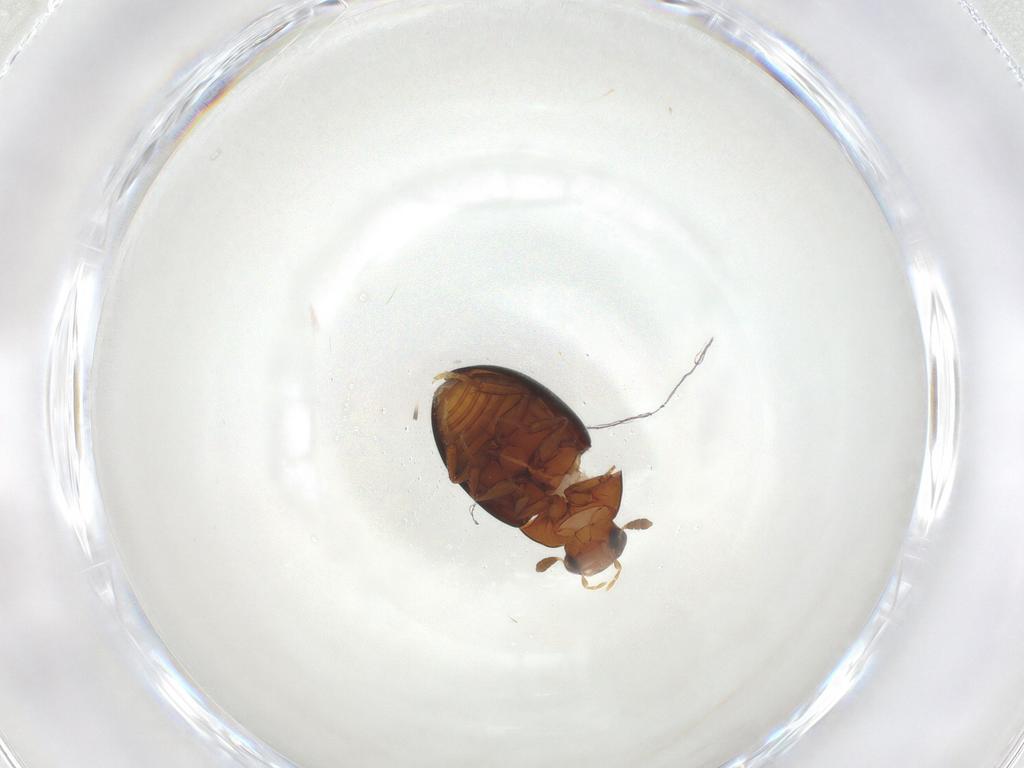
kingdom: Animalia
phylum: Arthropoda
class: Insecta
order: Coleoptera
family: Hydrophilidae
